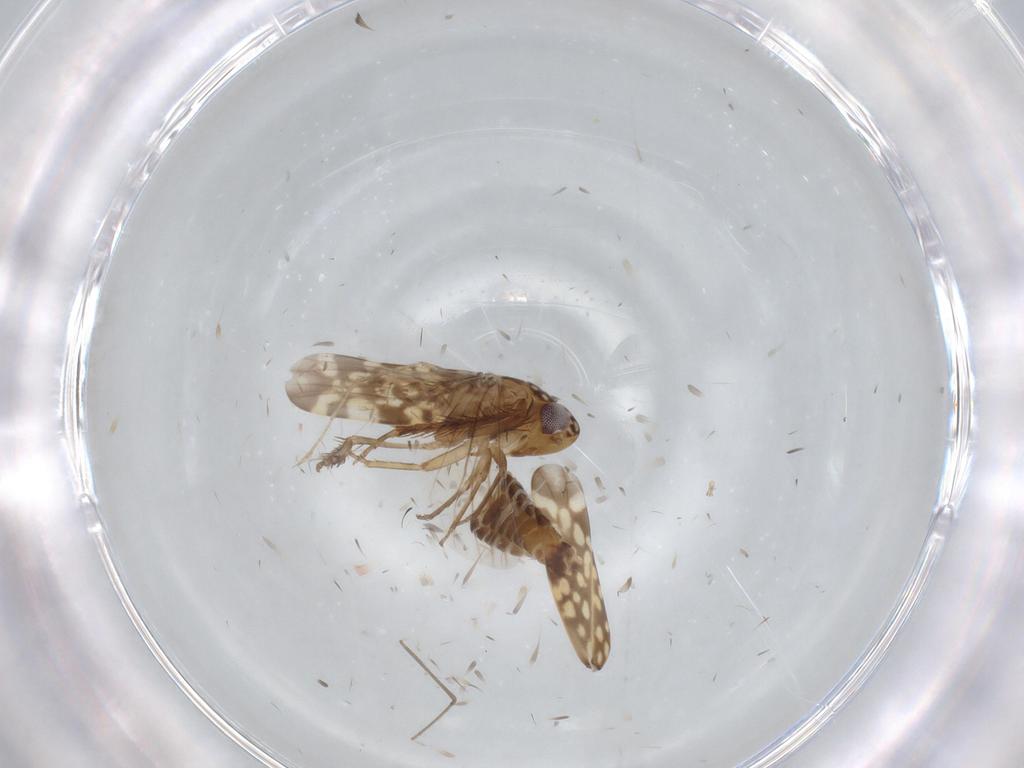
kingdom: Animalia
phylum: Arthropoda
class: Insecta
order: Hemiptera
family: Cicadellidae
